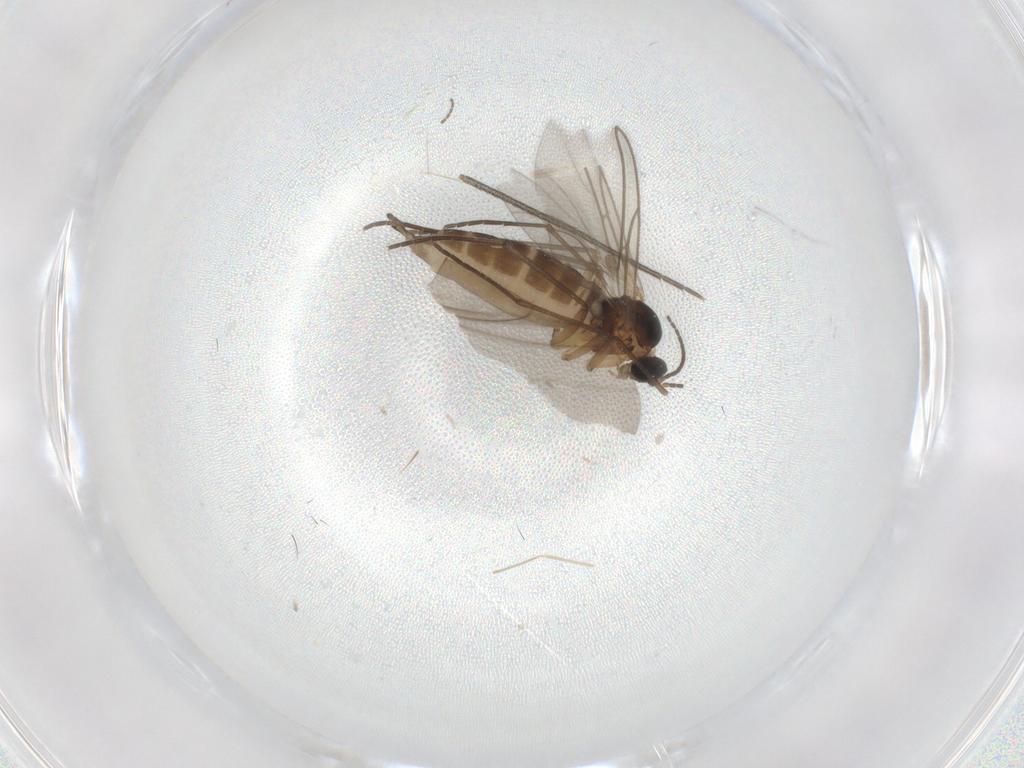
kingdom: Animalia
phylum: Arthropoda
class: Insecta
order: Diptera
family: Sciaridae
